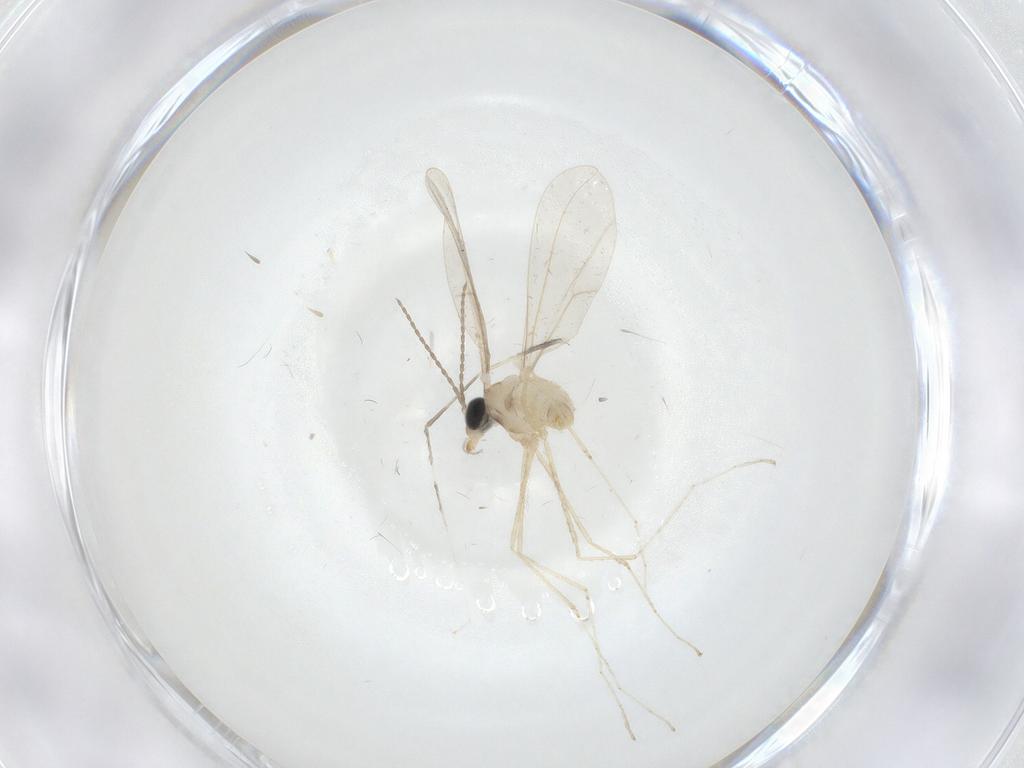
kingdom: Animalia
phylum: Arthropoda
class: Insecta
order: Diptera
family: Cecidomyiidae
